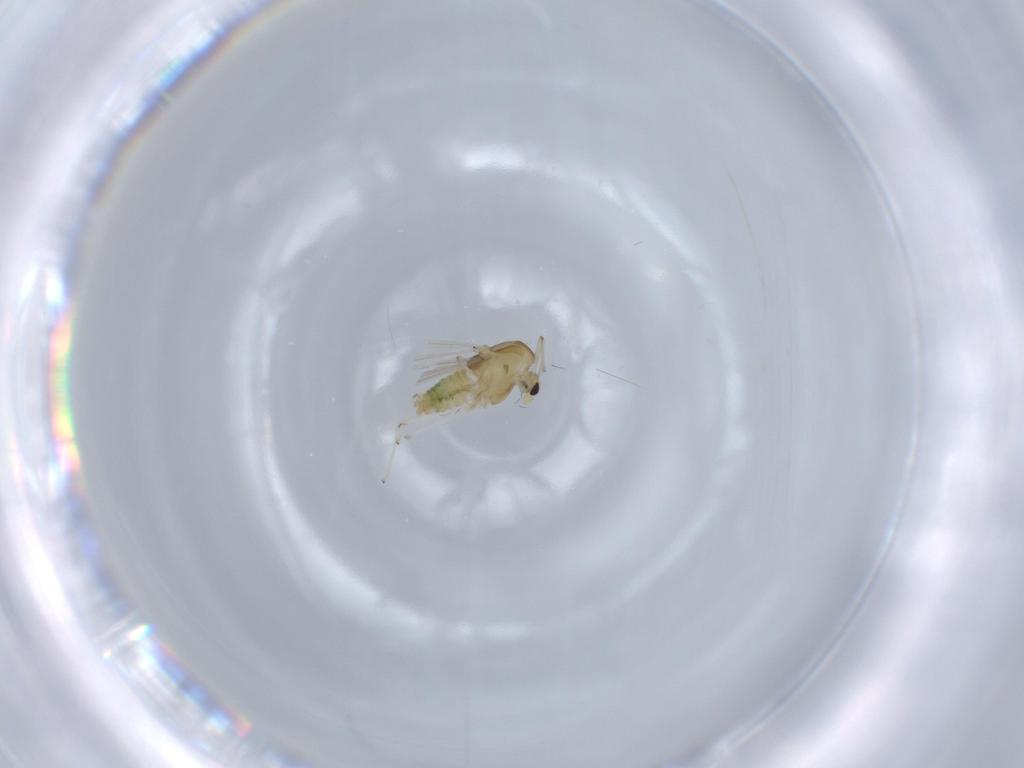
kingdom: Animalia
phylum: Arthropoda
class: Insecta
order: Diptera
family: Chironomidae
